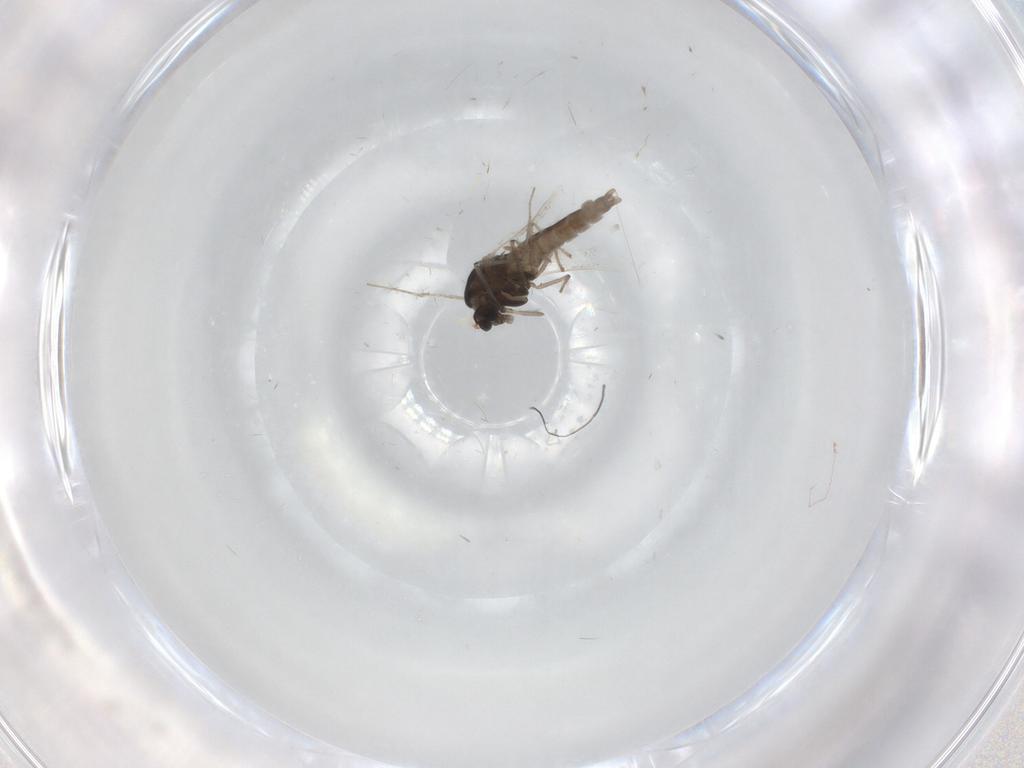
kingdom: Animalia
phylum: Arthropoda
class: Insecta
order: Diptera
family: Chironomidae
